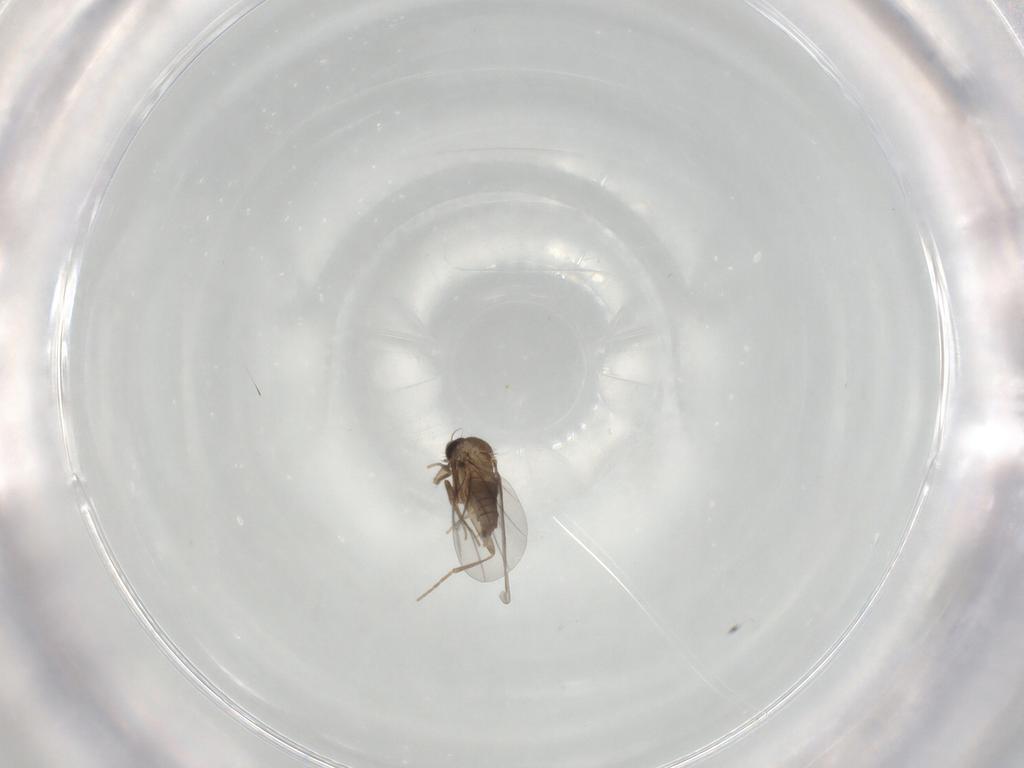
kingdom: Animalia
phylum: Arthropoda
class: Insecta
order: Diptera
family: Ceratopogonidae
